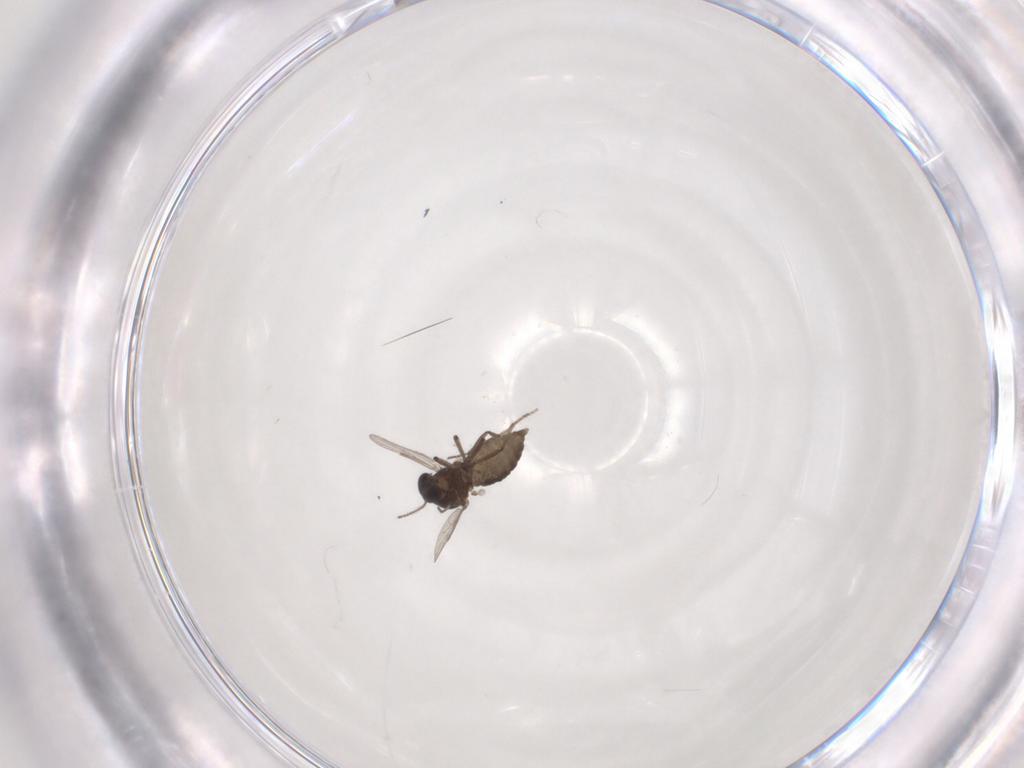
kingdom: Animalia
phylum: Arthropoda
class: Insecta
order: Diptera
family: Ceratopogonidae
